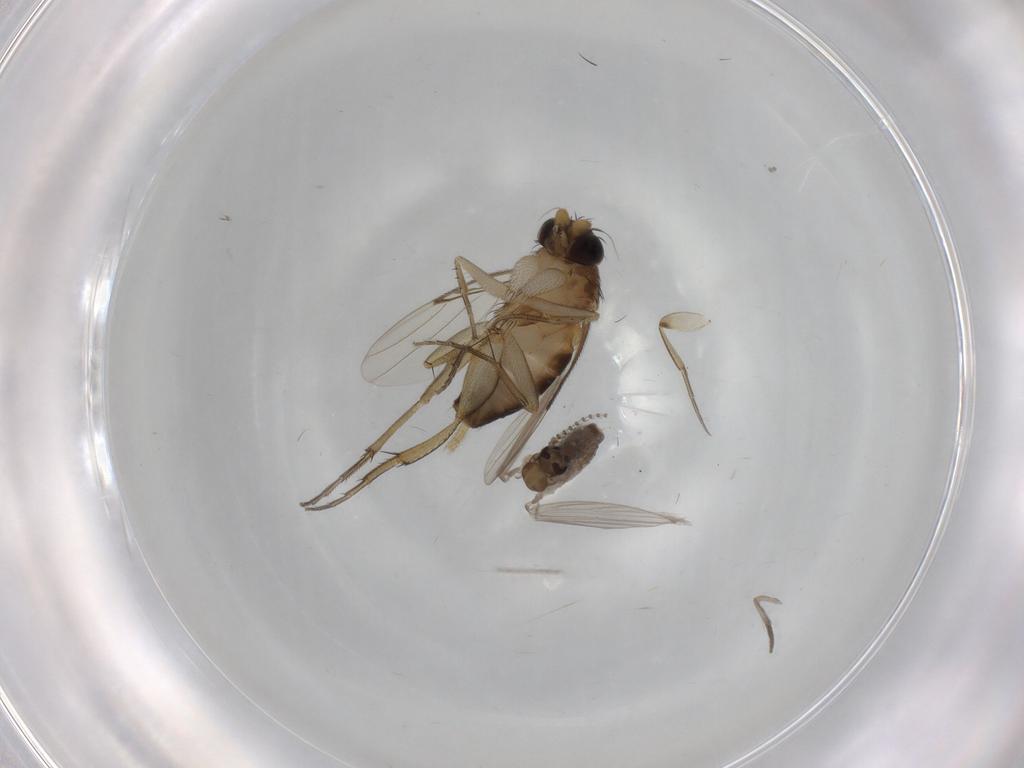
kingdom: Animalia
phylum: Arthropoda
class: Insecta
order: Diptera
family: Psychodidae
